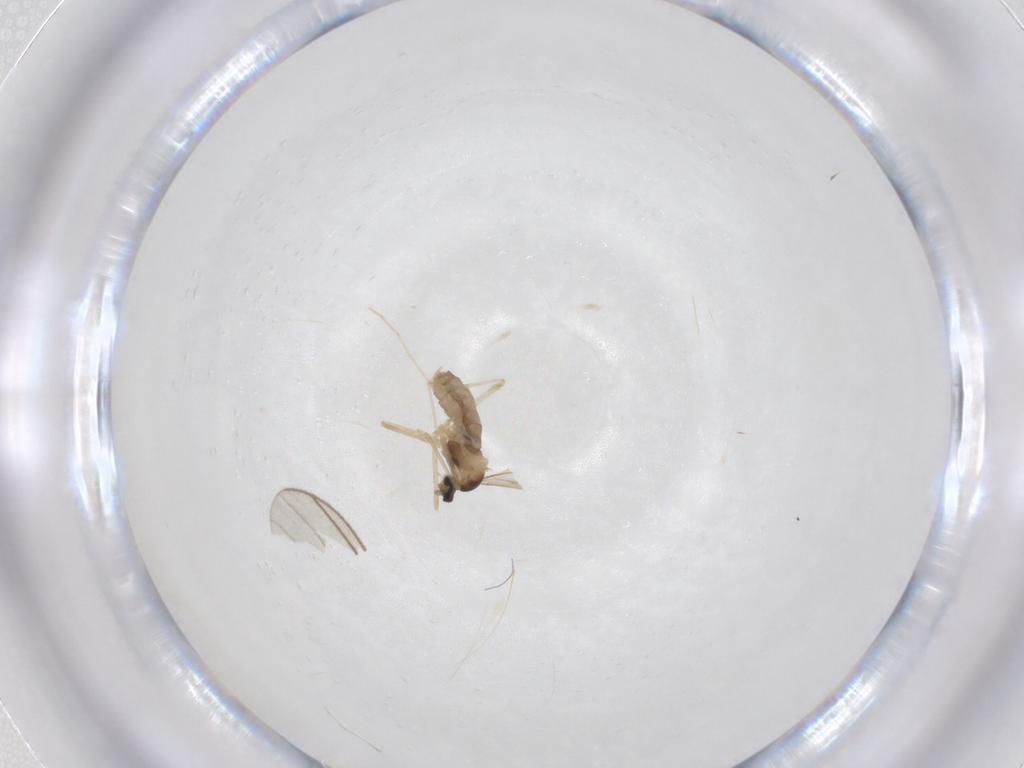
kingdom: Animalia
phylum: Arthropoda
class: Insecta
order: Diptera
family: Cecidomyiidae
